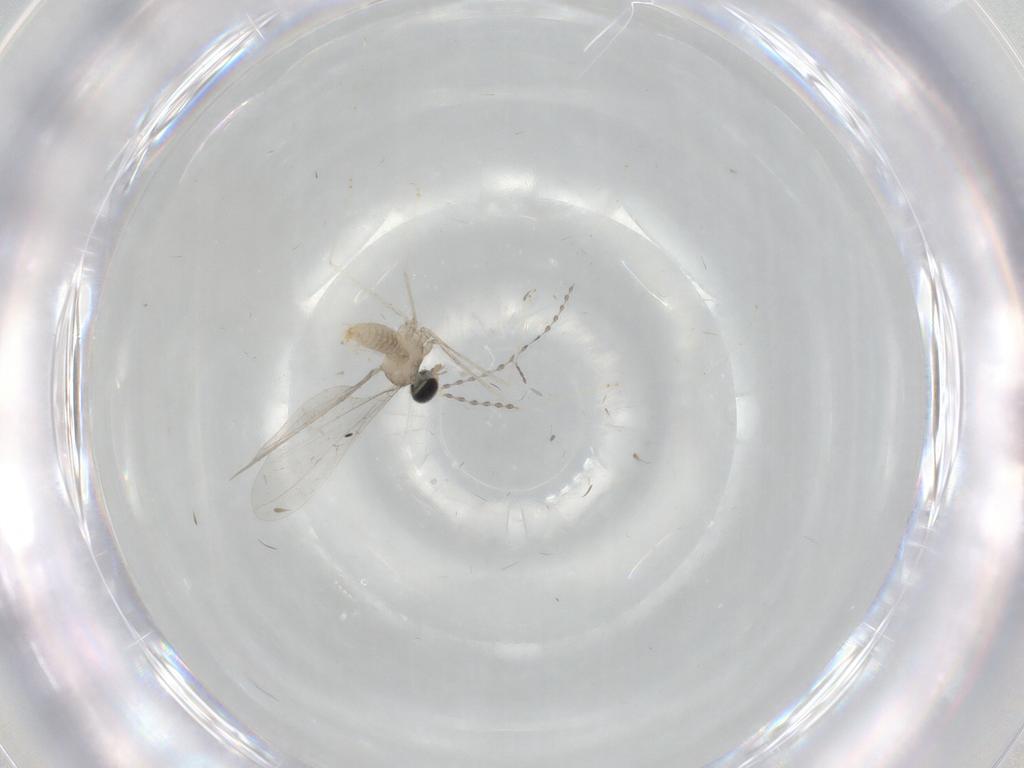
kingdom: Animalia
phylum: Arthropoda
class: Insecta
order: Diptera
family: Cecidomyiidae
